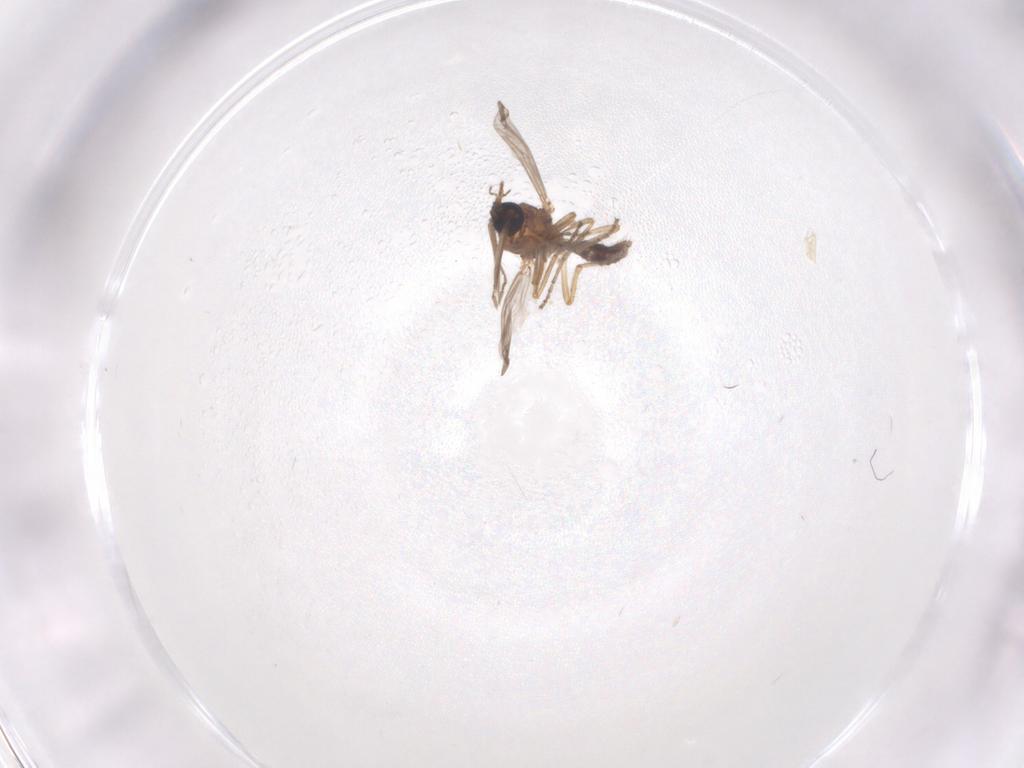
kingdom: Animalia
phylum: Arthropoda
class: Insecta
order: Diptera
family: Ceratopogonidae
